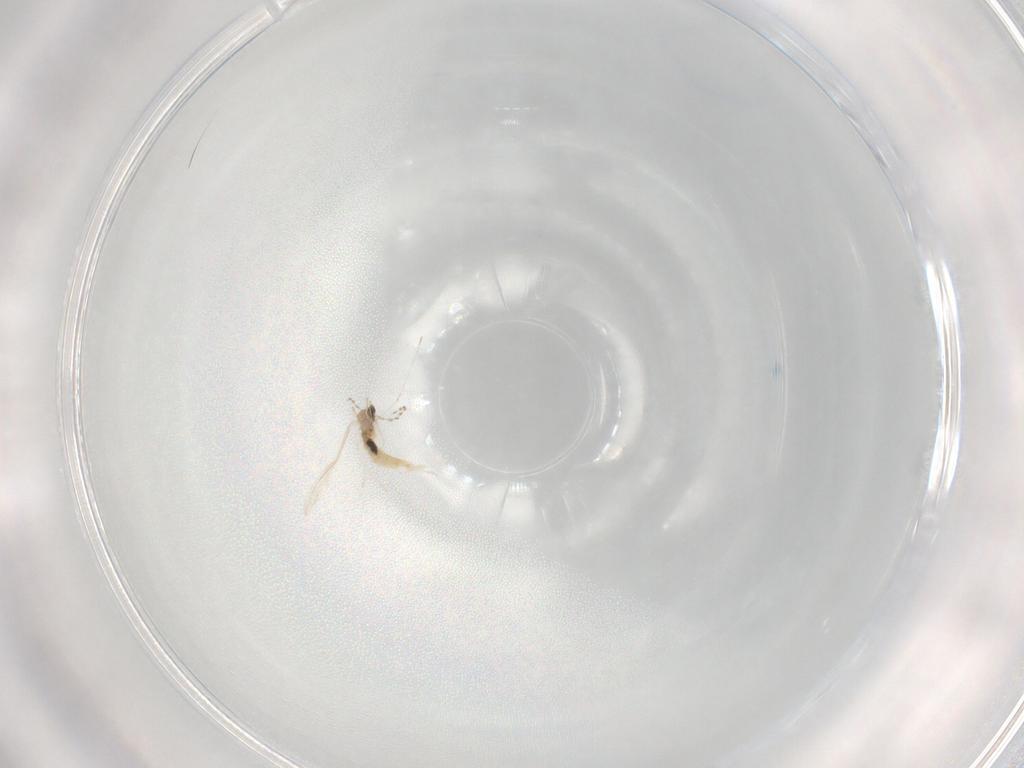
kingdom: Animalia
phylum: Arthropoda
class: Insecta
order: Diptera
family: Cecidomyiidae
